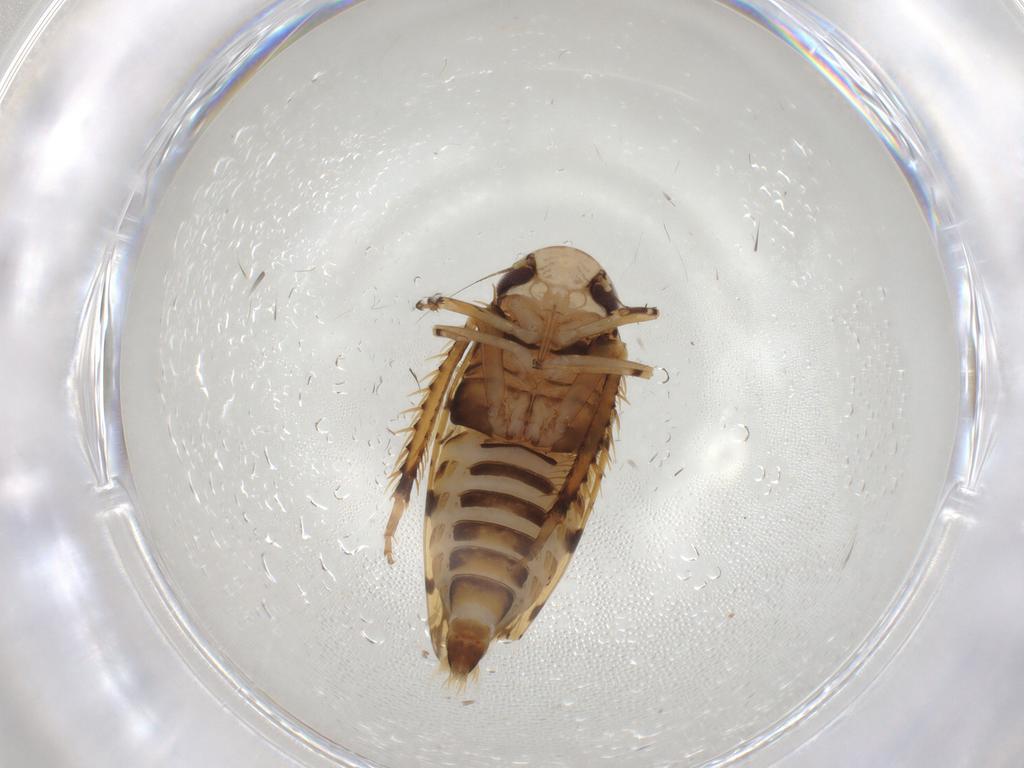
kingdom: Animalia
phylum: Arthropoda
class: Insecta
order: Hemiptera
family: Cicadellidae
